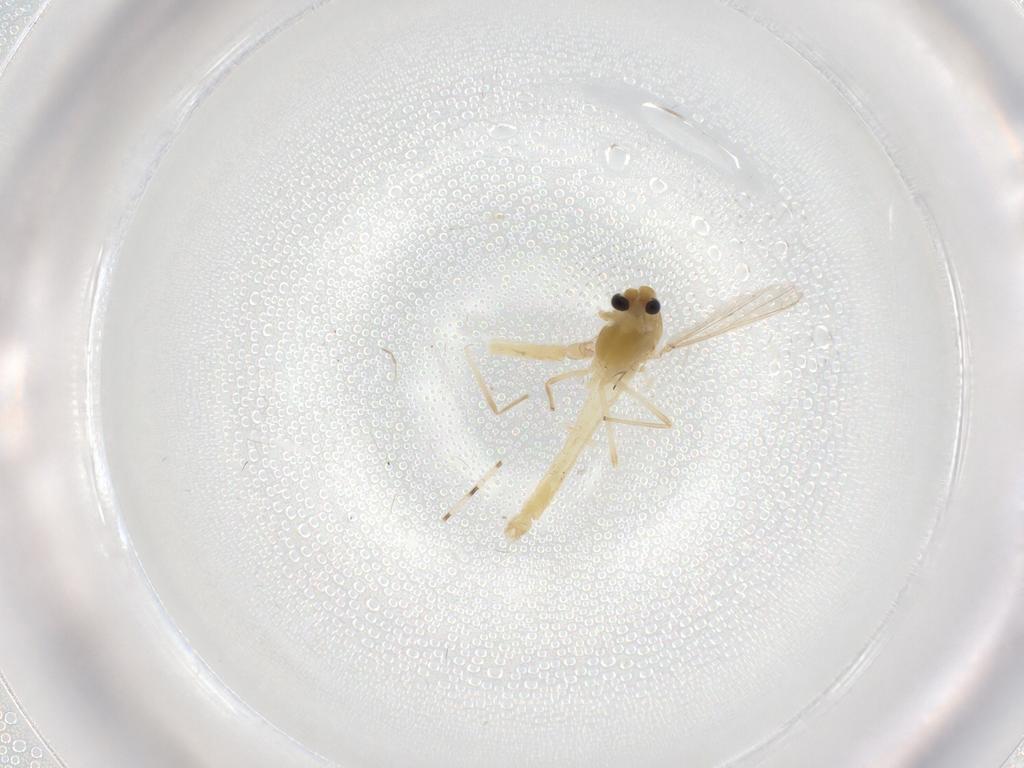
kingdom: Animalia
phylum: Arthropoda
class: Insecta
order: Diptera
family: Chironomidae
